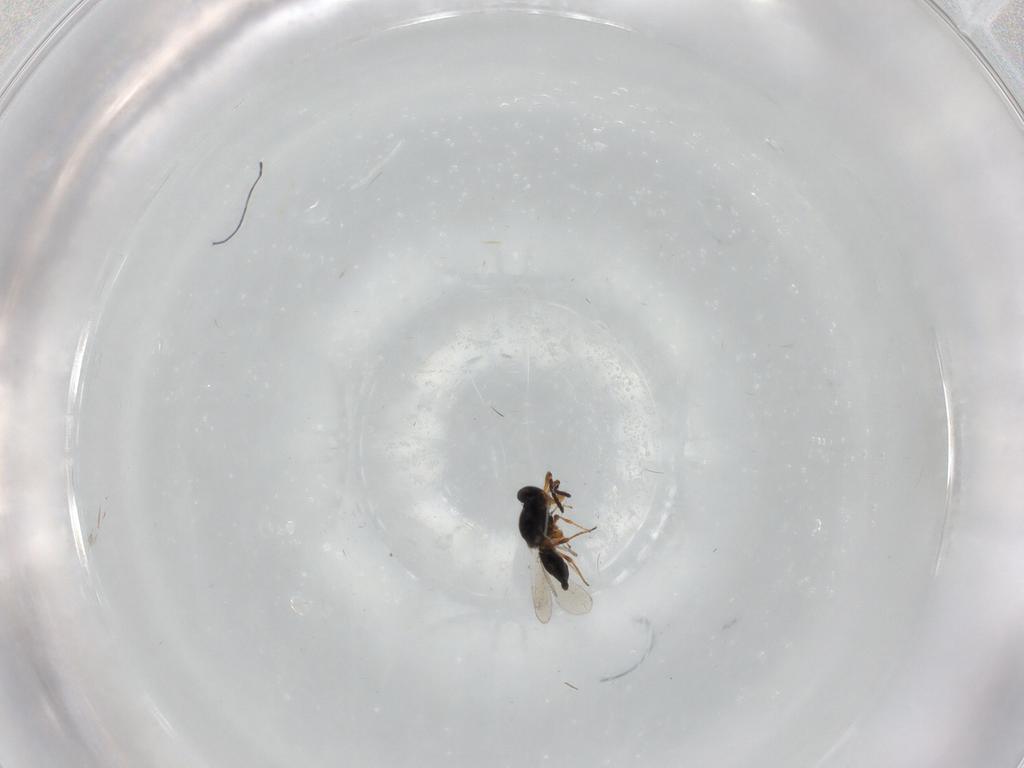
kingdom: Animalia
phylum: Arthropoda
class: Insecta
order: Hymenoptera
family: Platygastridae
